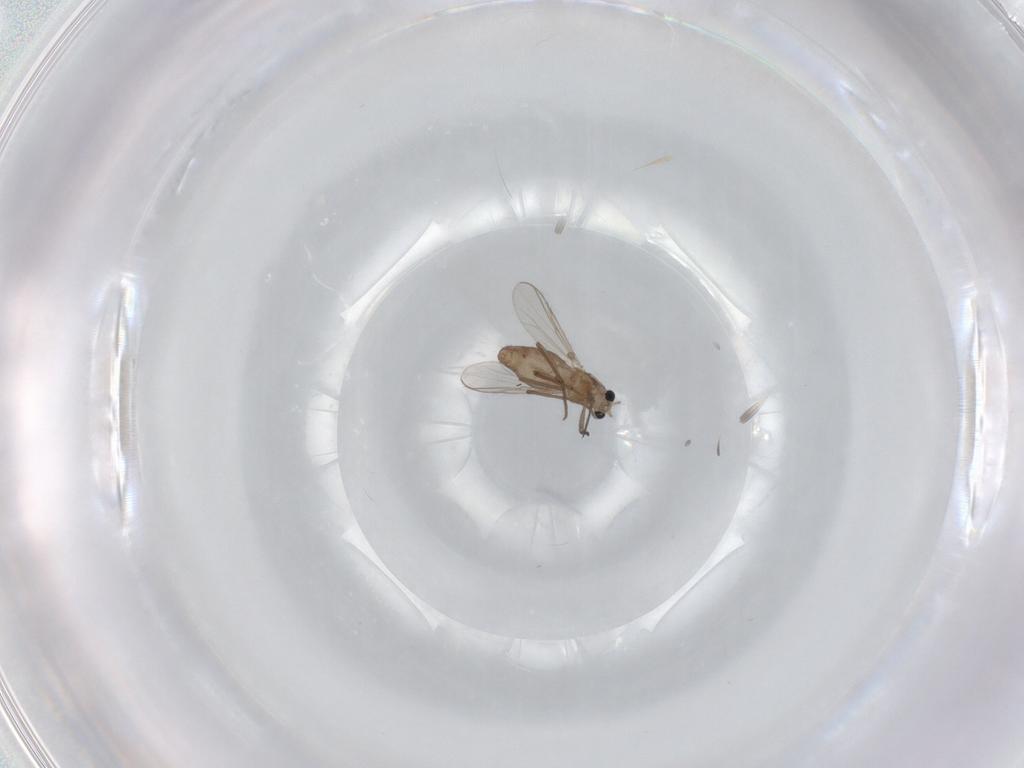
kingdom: Animalia
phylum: Arthropoda
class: Insecta
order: Diptera
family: Chironomidae
